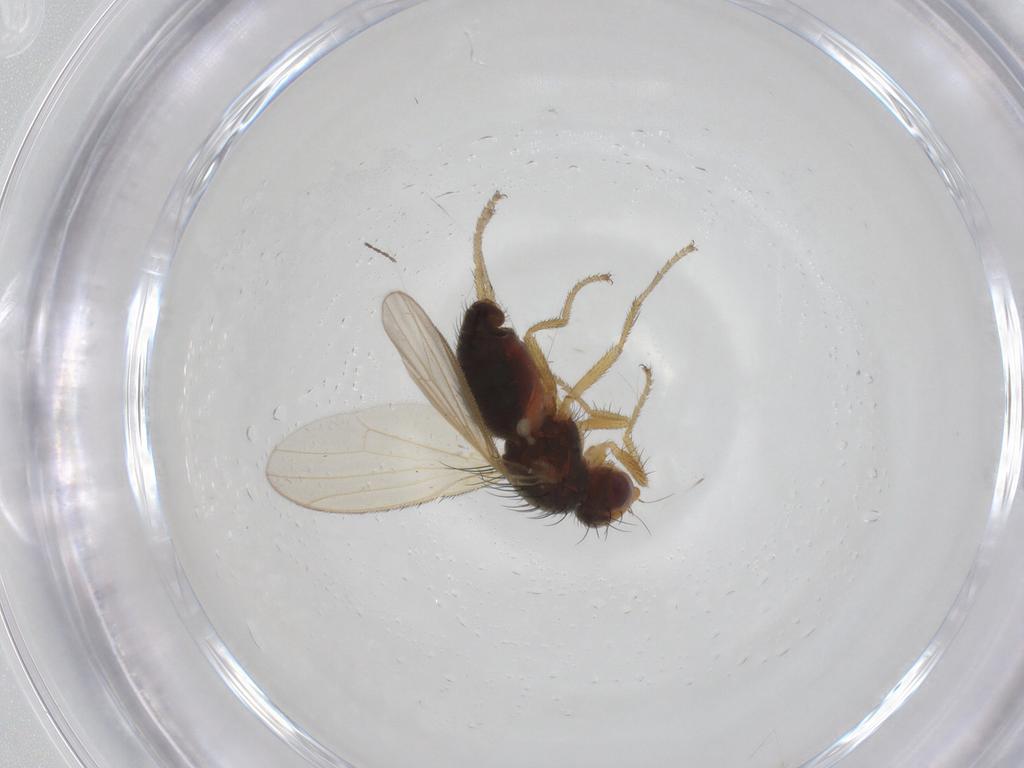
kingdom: Animalia
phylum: Arthropoda
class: Insecta
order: Diptera
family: Heleomyzidae
